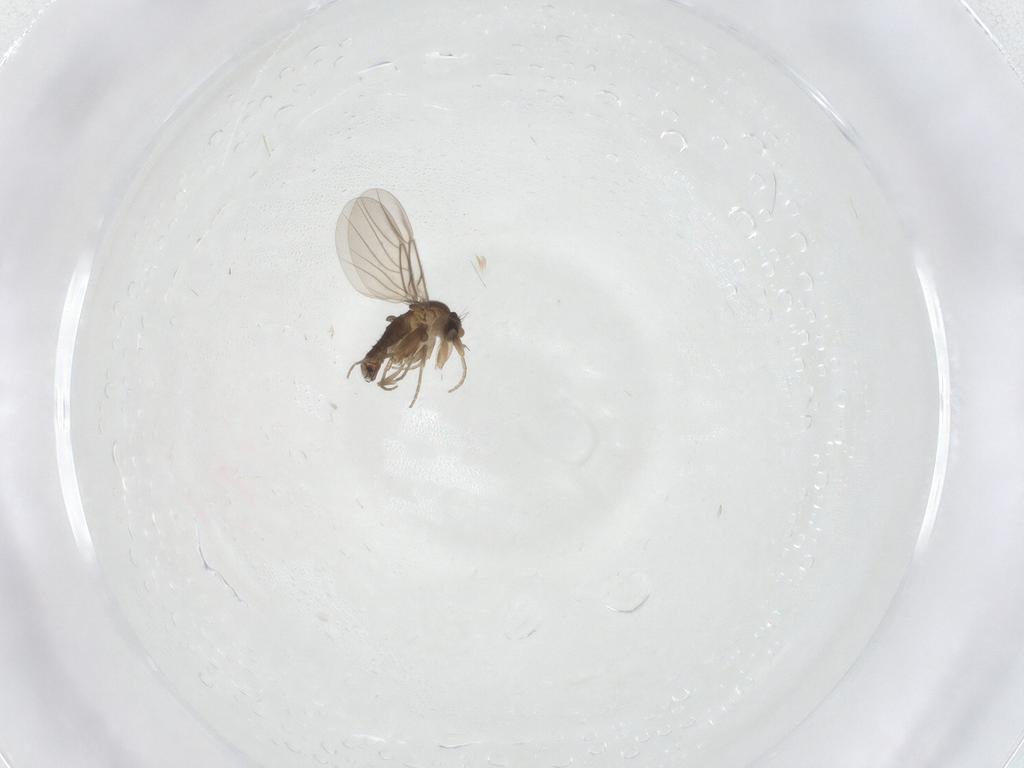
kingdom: Animalia
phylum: Arthropoda
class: Insecta
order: Diptera
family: Phoridae
